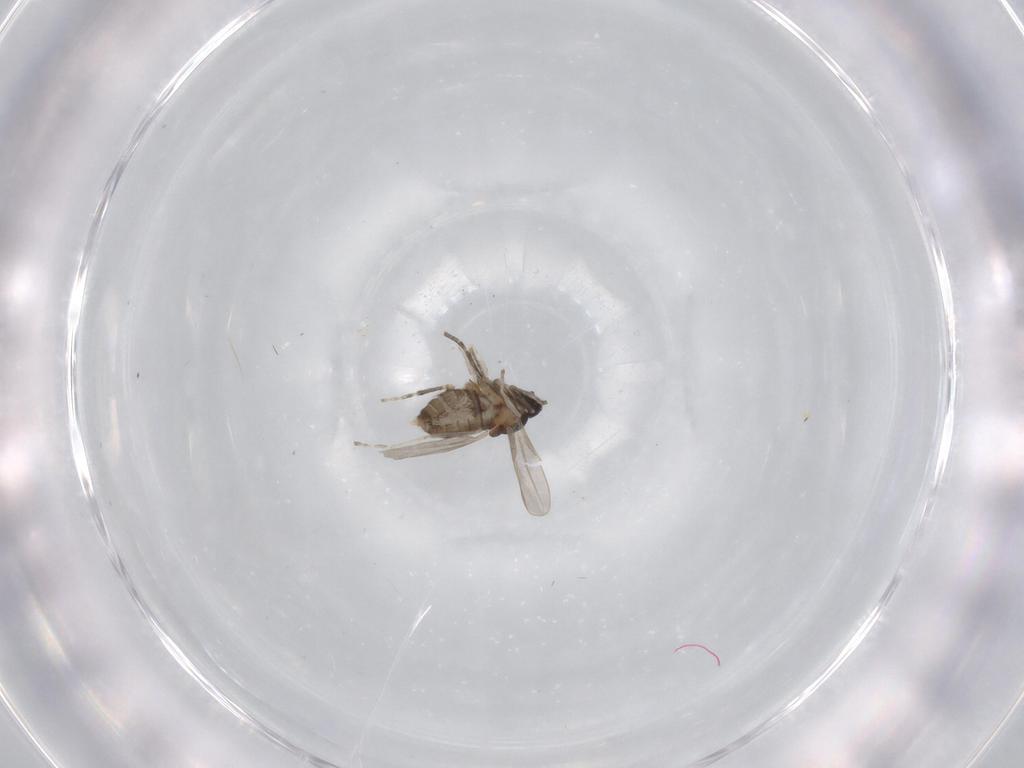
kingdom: Animalia
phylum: Arthropoda
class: Insecta
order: Diptera
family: Cecidomyiidae
